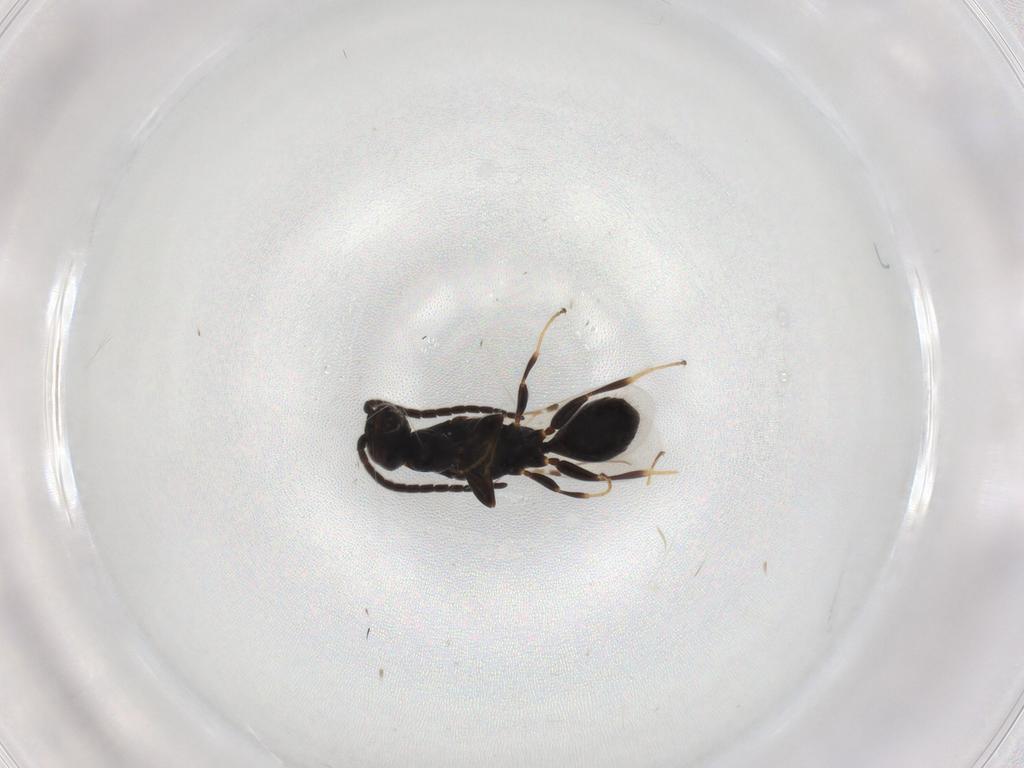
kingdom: Animalia
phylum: Arthropoda
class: Insecta
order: Hymenoptera
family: Bethylidae
